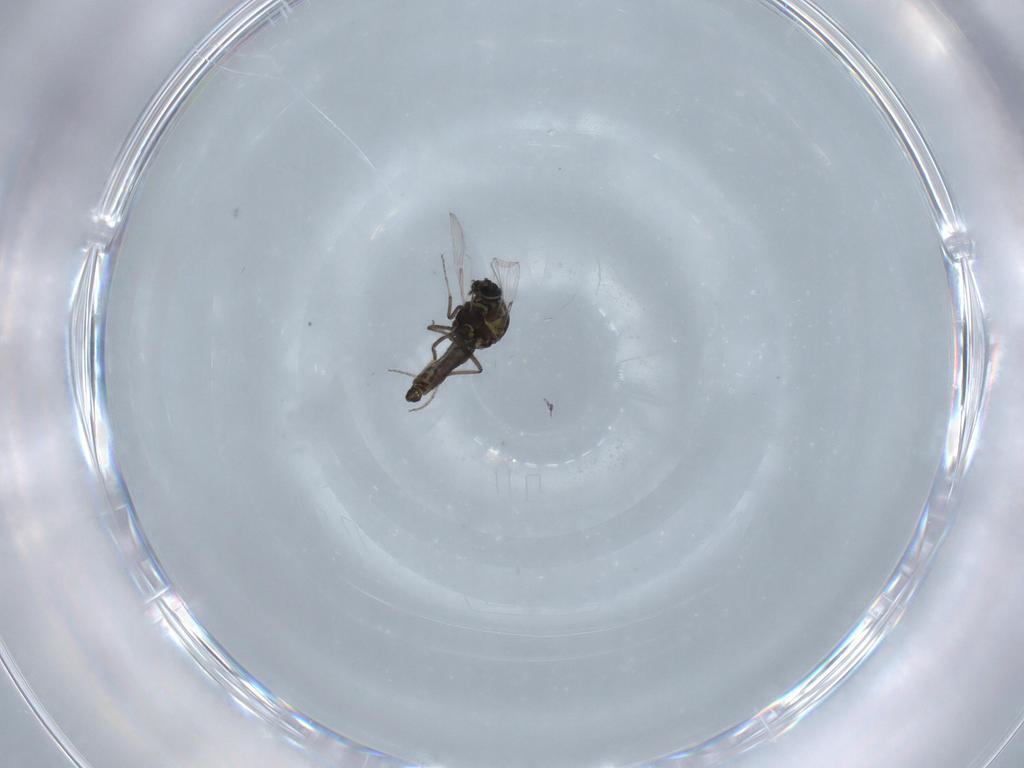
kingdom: Animalia
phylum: Arthropoda
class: Insecta
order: Diptera
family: Ceratopogonidae
